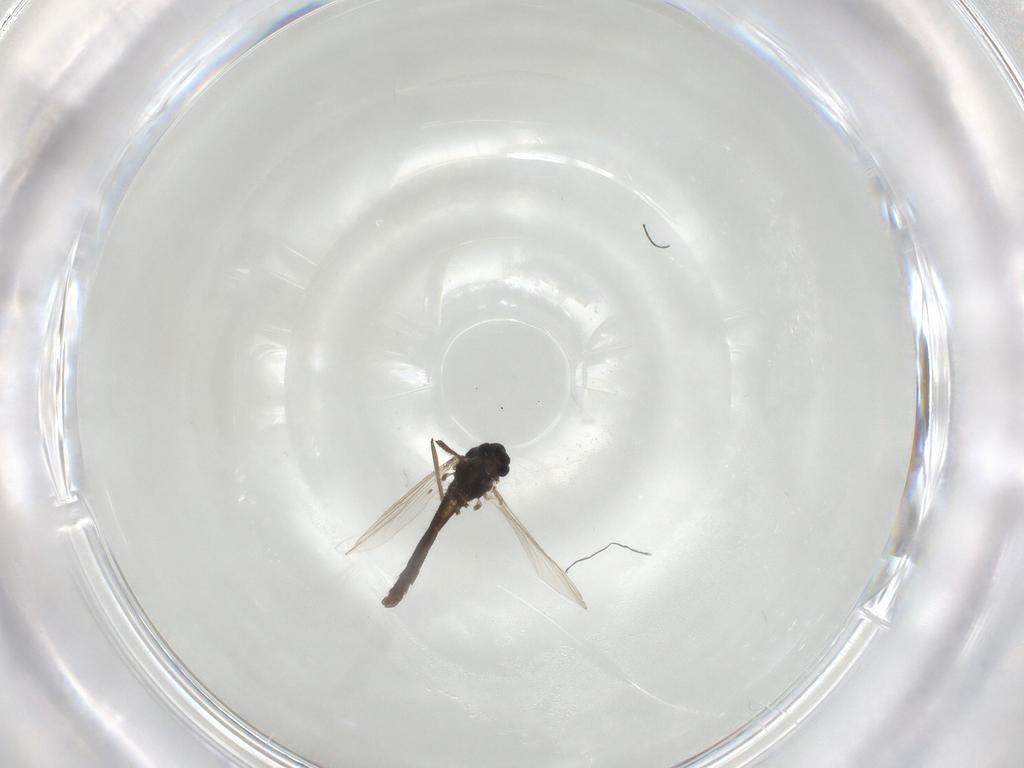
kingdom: Animalia
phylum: Arthropoda
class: Insecta
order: Diptera
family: Chironomidae
